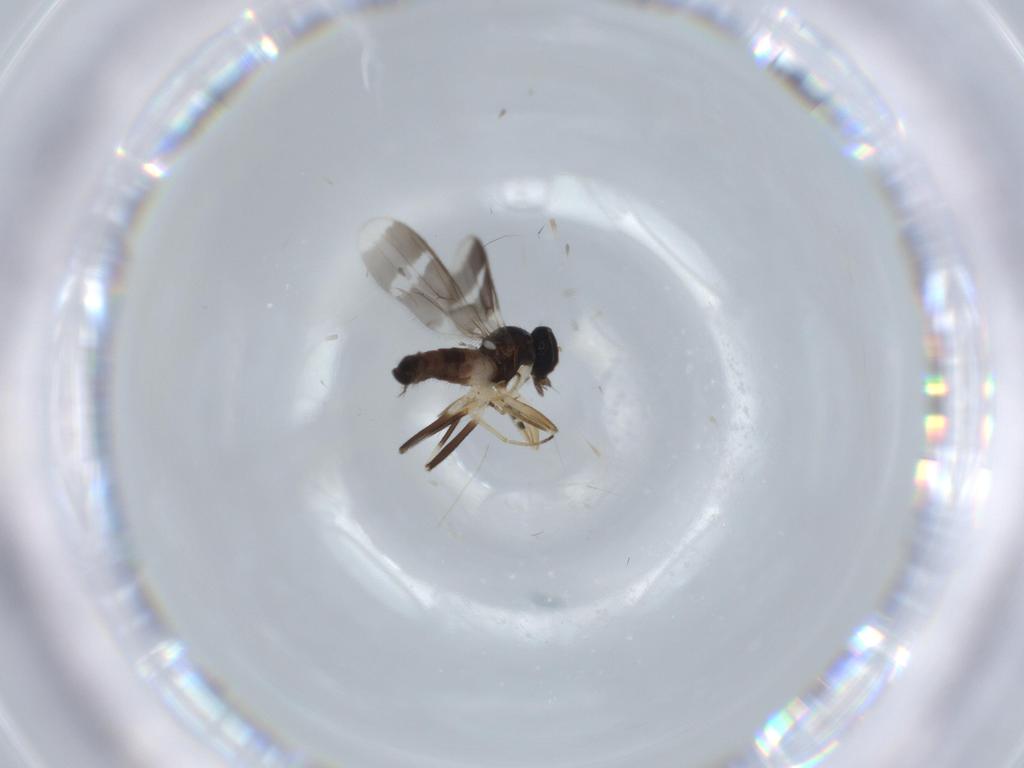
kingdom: Animalia
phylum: Arthropoda
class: Insecta
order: Diptera
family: Hybotidae
